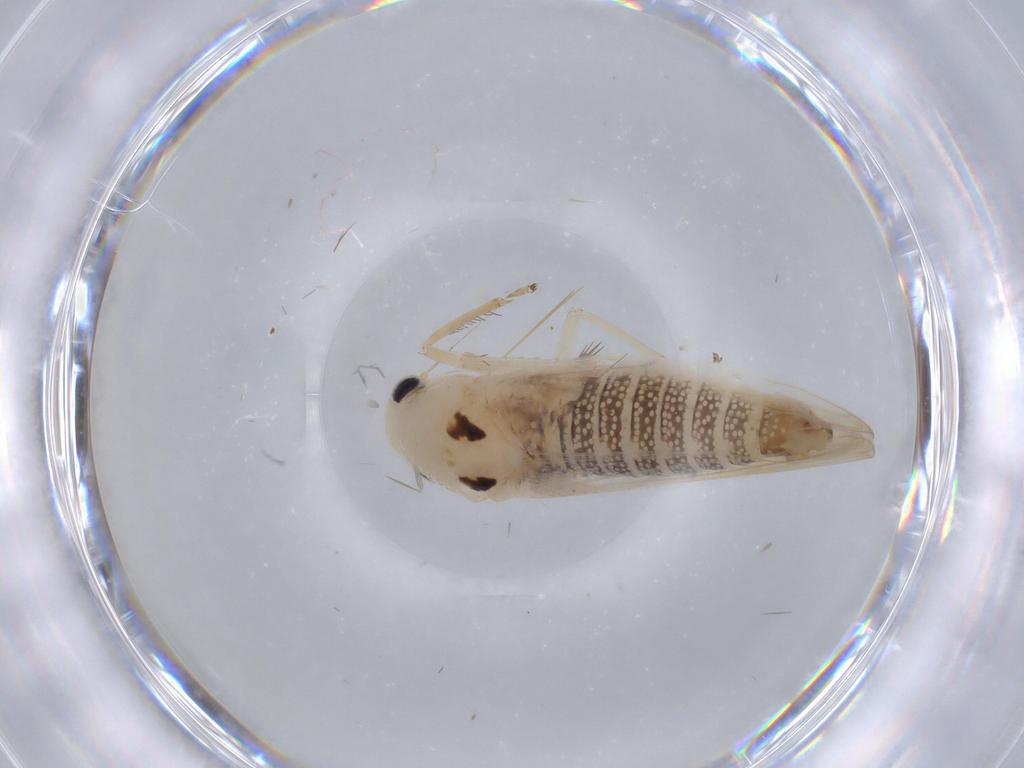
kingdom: Animalia
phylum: Arthropoda
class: Insecta
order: Hemiptera
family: Cicadellidae
